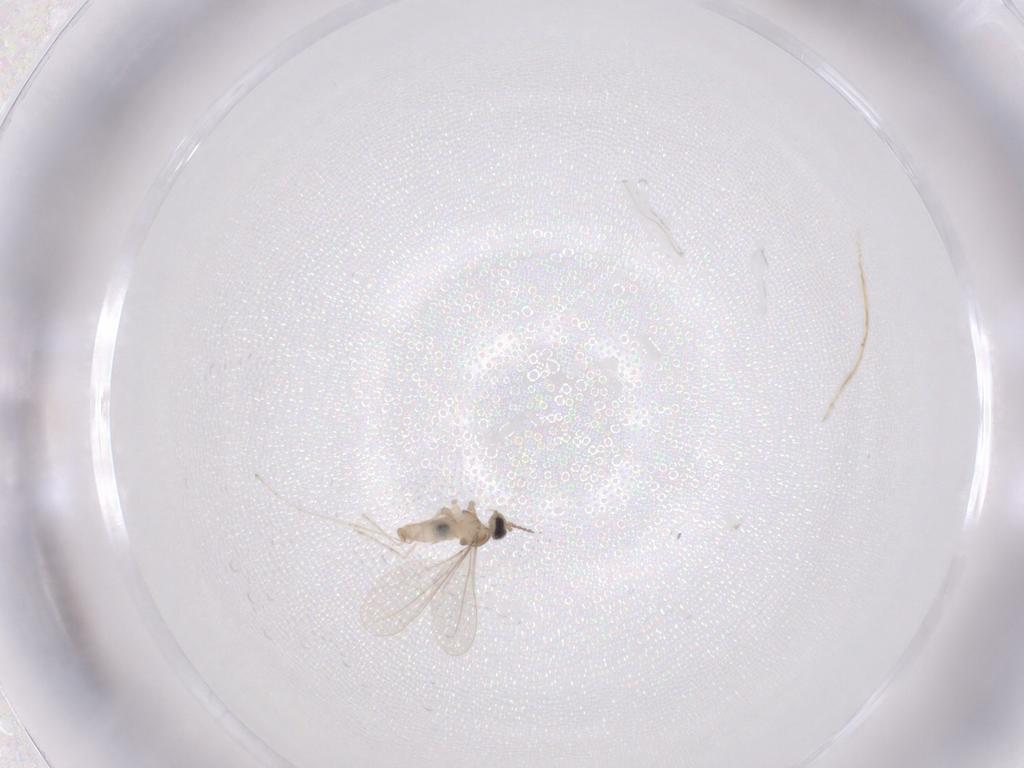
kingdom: Animalia
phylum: Arthropoda
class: Insecta
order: Diptera
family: Cecidomyiidae
